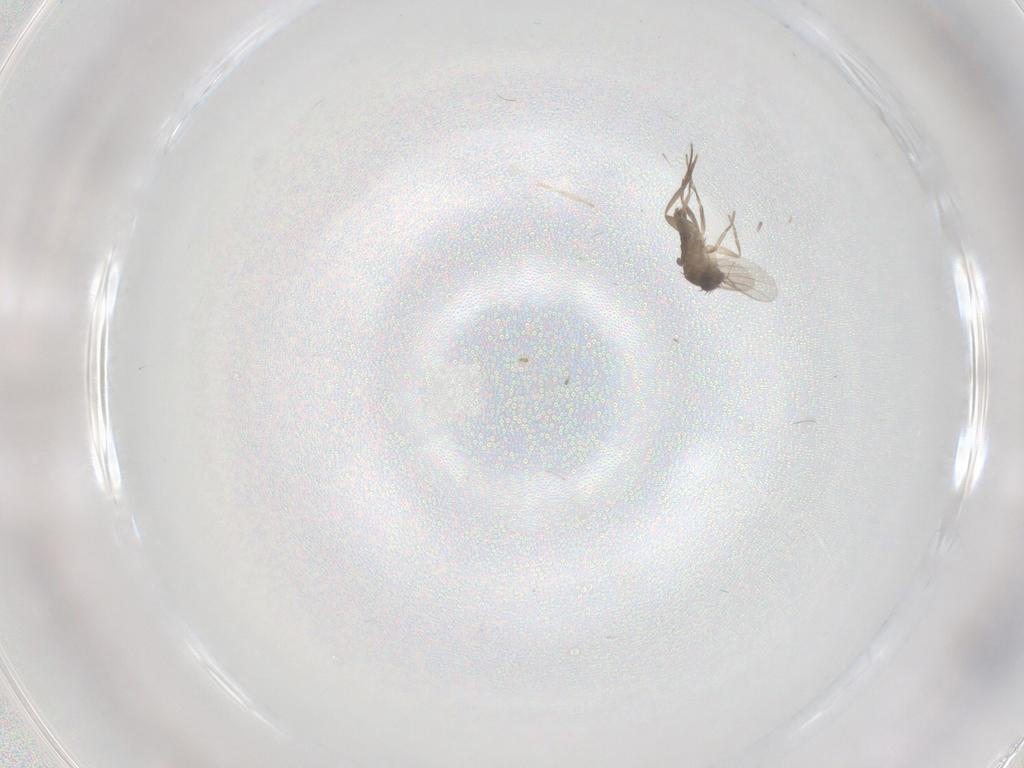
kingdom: Animalia
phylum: Arthropoda
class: Insecta
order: Diptera
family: Phoridae
